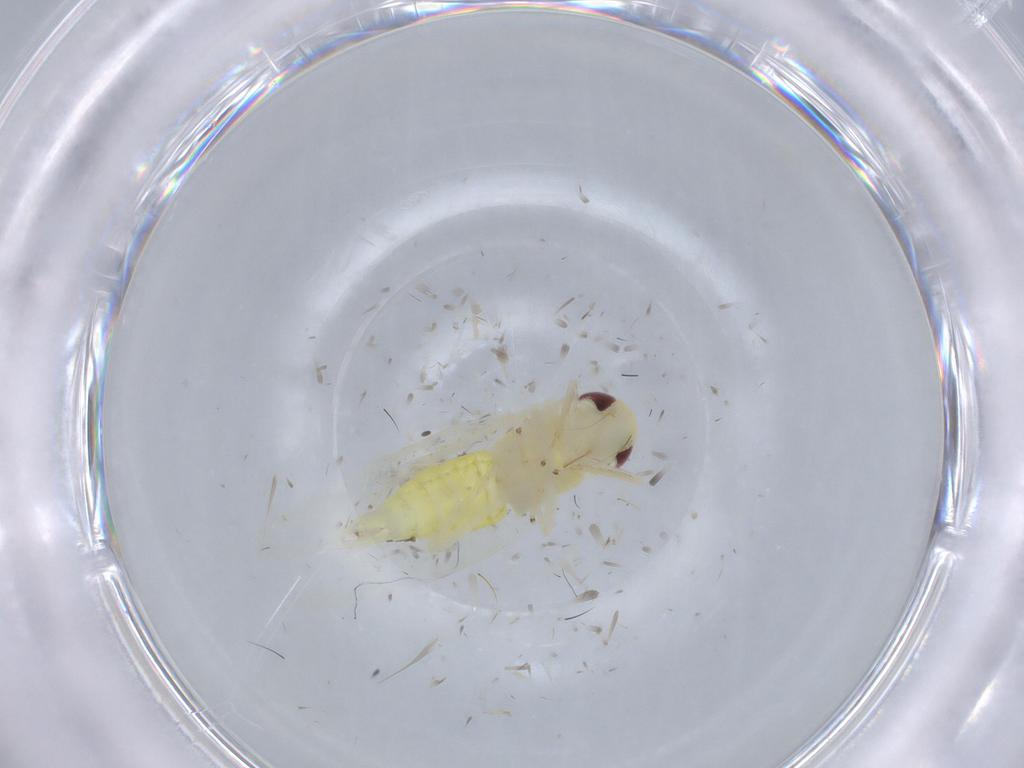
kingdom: Animalia
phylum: Arthropoda
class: Insecta
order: Hemiptera
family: Cicadellidae
